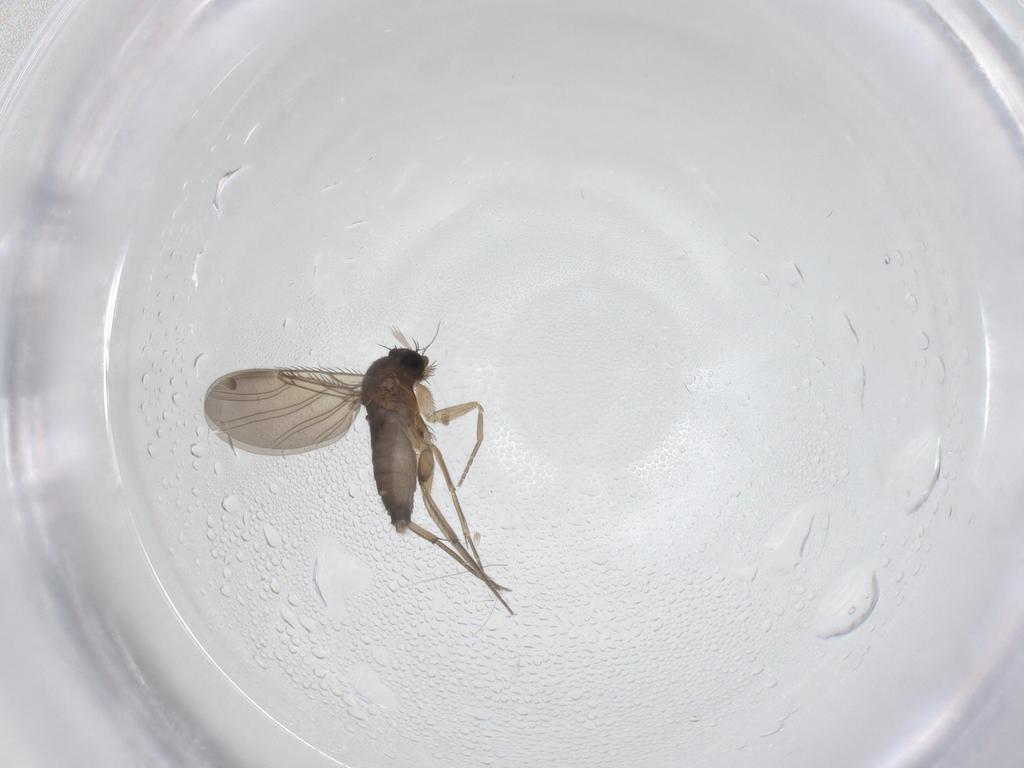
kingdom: Animalia
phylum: Arthropoda
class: Insecta
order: Diptera
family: Phoridae
